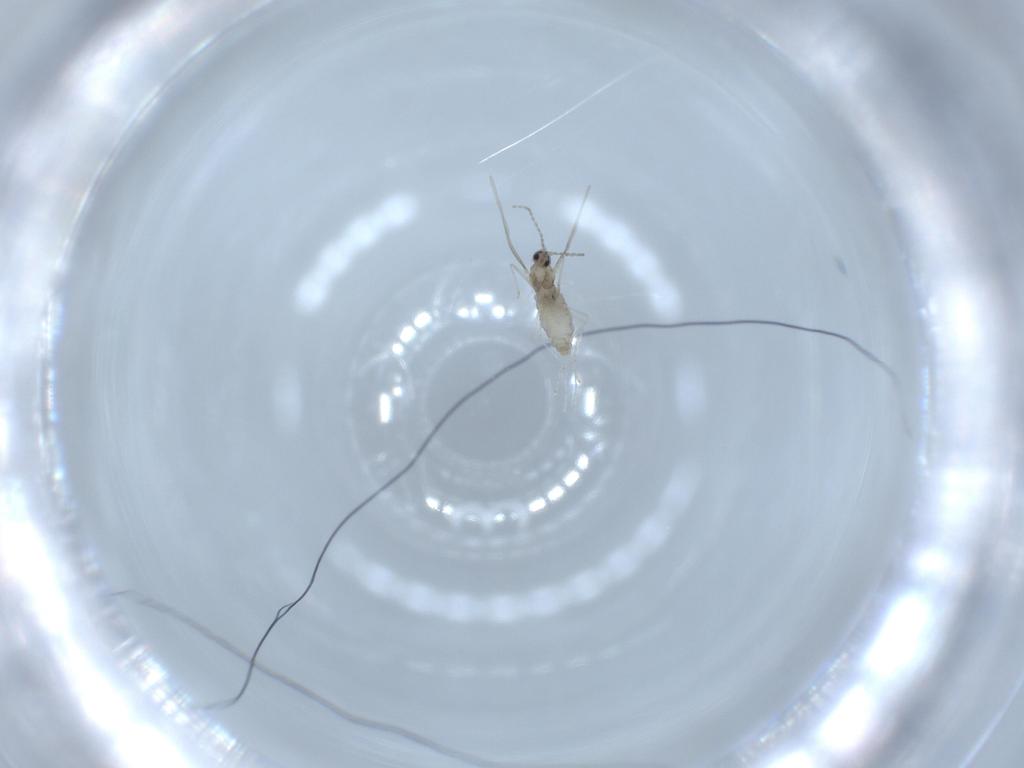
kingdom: Animalia
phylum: Arthropoda
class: Insecta
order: Diptera
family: Cecidomyiidae
